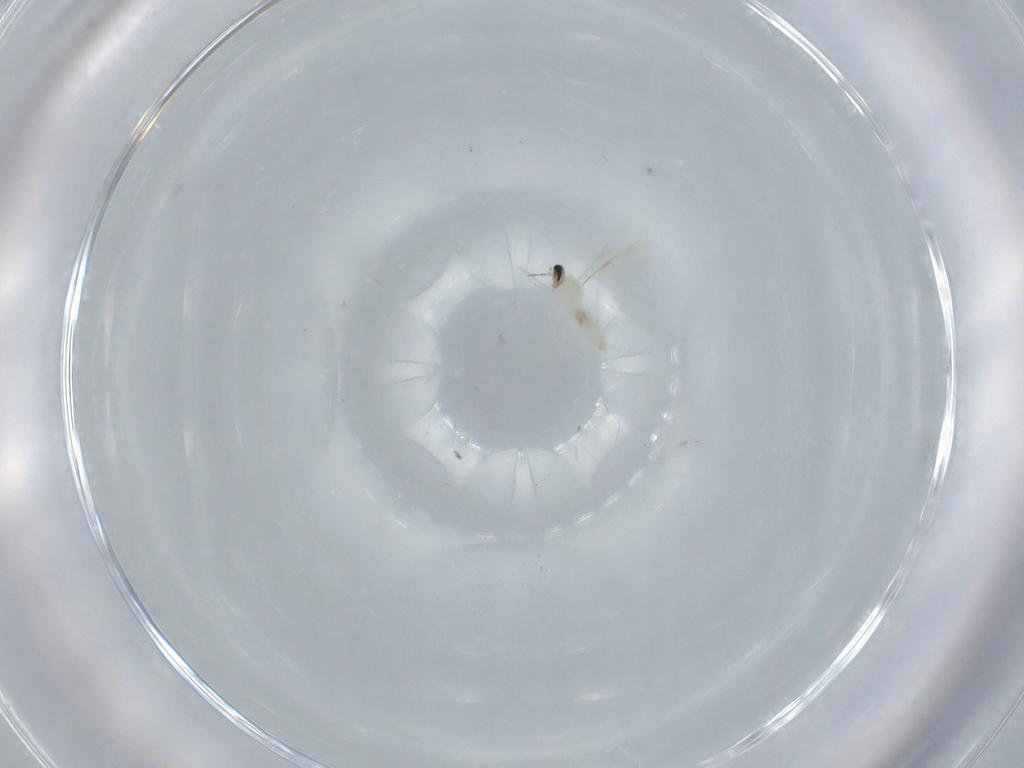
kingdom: Animalia
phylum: Arthropoda
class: Insecta
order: Diptera
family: Cecidomyiidae
